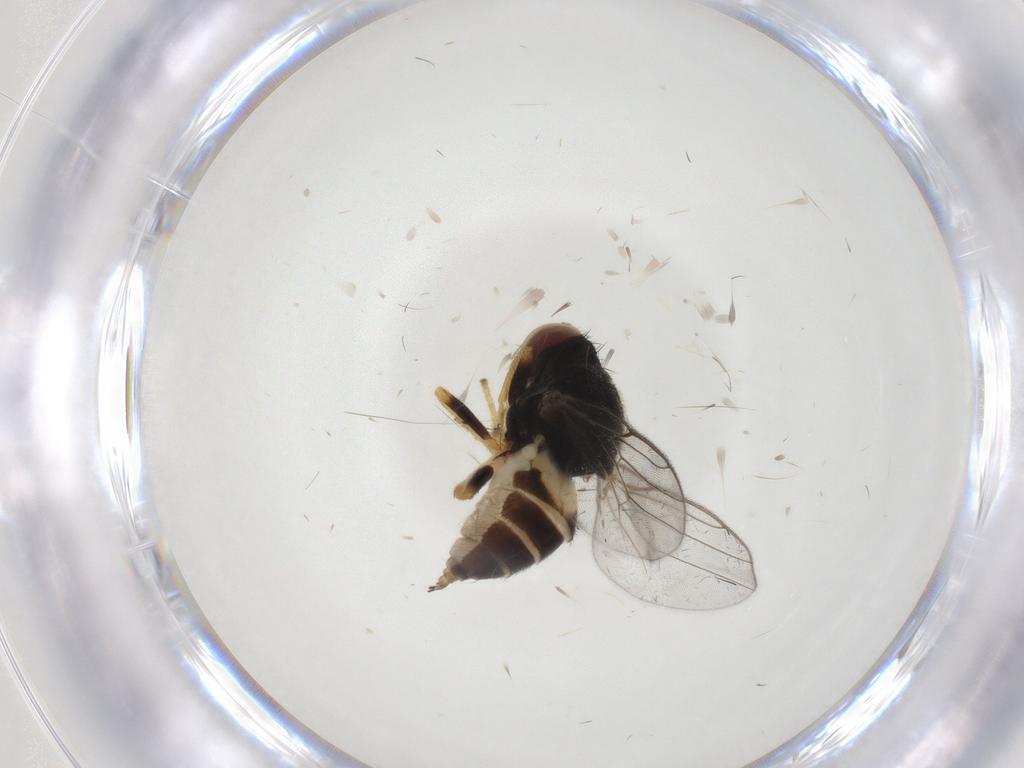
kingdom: Animalia
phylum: Arthropoda
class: Insecta
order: Diptera
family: Chloropidae
